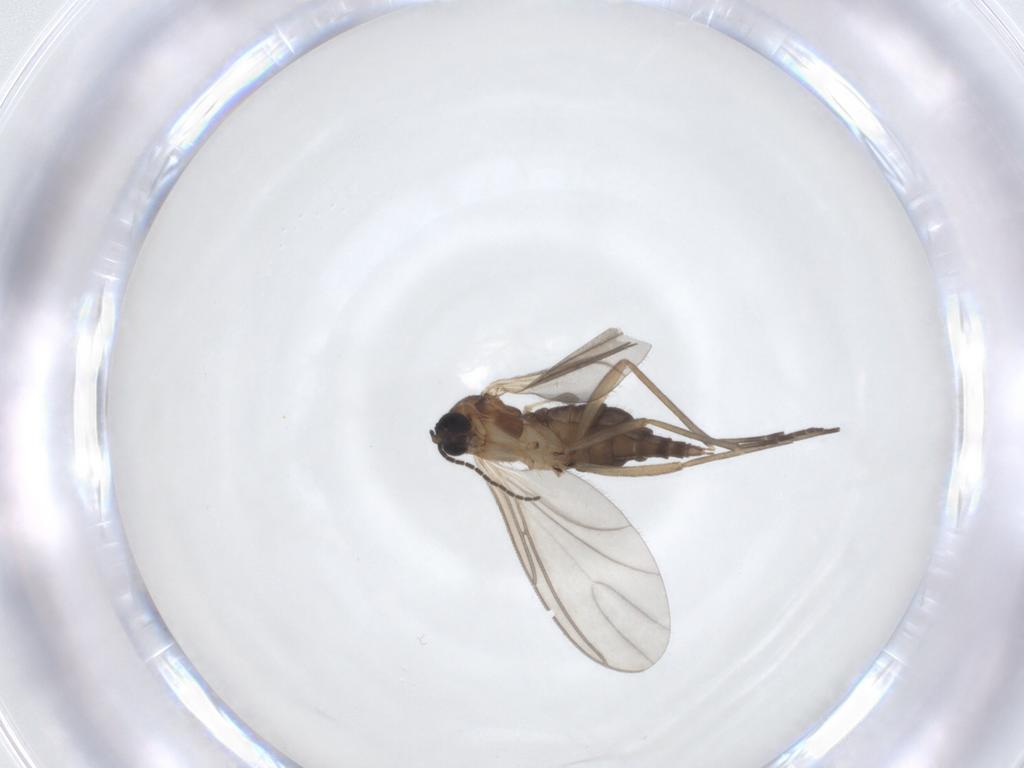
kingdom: Animalia
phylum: Arthropoda
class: Insecta
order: Diptera
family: Sciaridae
